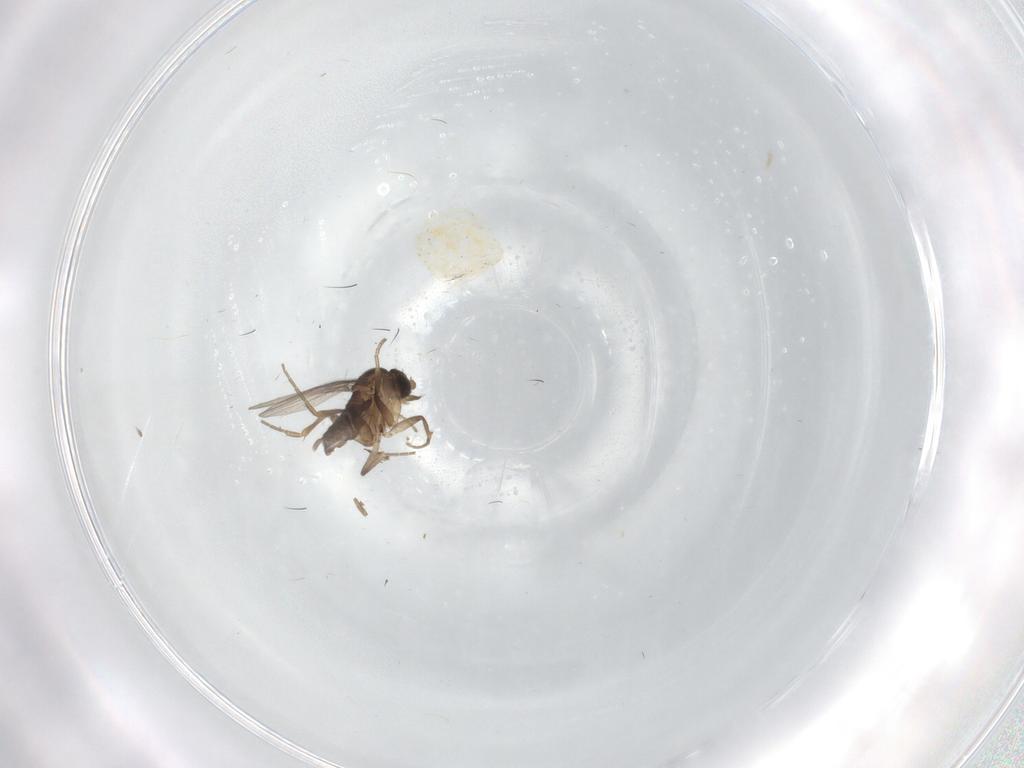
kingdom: Animalia
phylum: Arthropoda
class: Insecta
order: Diptera
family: Phoridae
